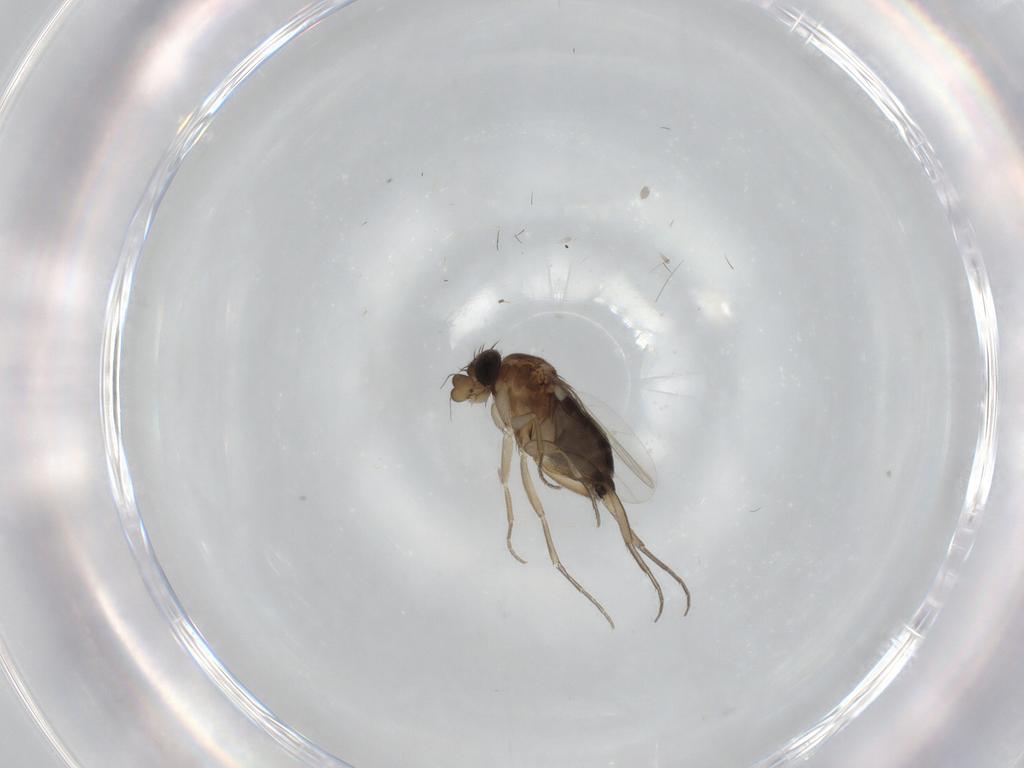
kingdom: Animalia
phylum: Arthropoda
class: Insecta
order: Diptera
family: Phoridae
